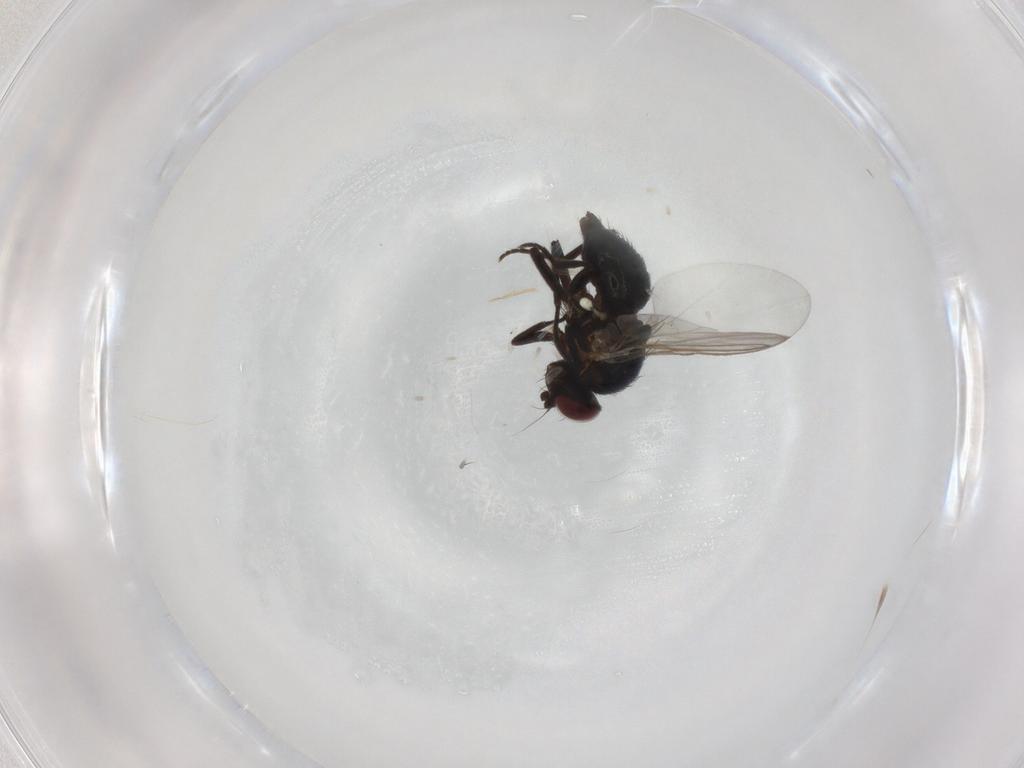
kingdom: Animalia
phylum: Arthropoda
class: Insecta
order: Diptera
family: Agromyzidae
